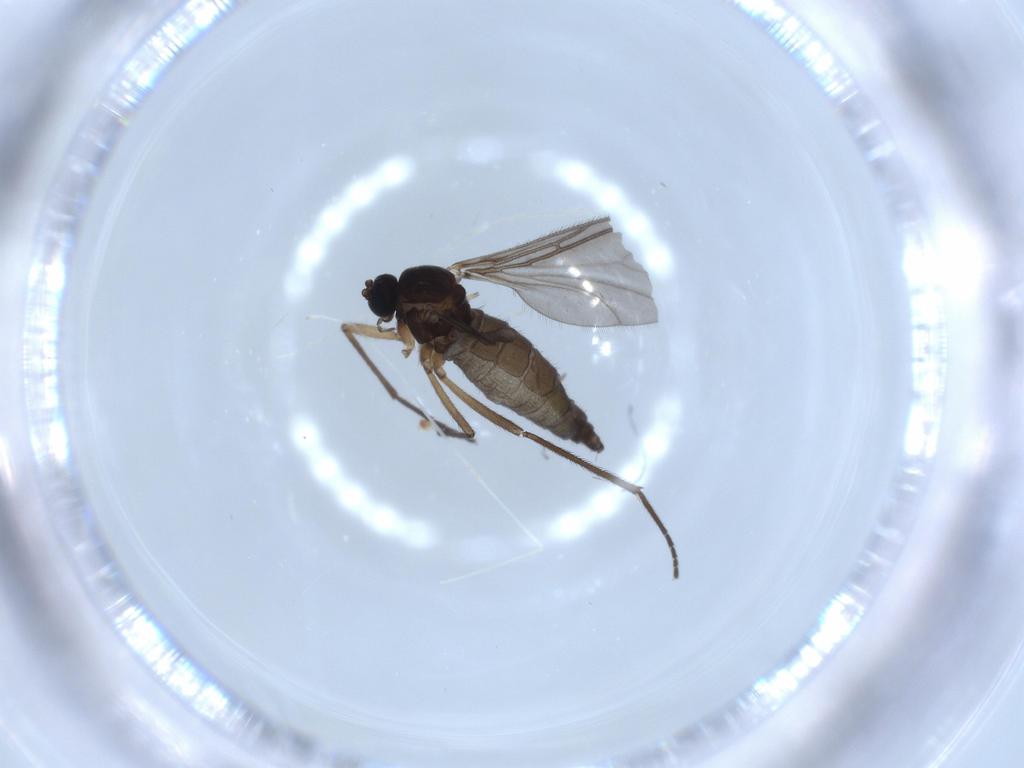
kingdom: Animalia
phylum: Arthropoda
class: Insecta
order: Diptera
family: Sciaridae
